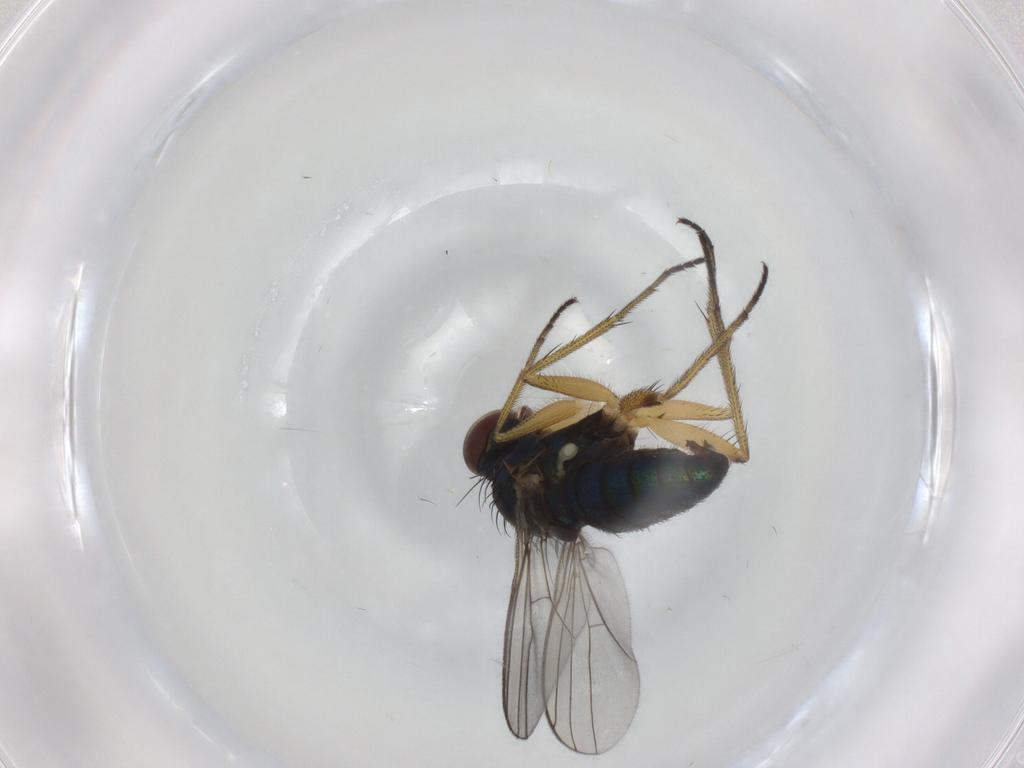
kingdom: Animalia
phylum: Arthropoda
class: Insecta
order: Diptera
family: Dolichopodidae
